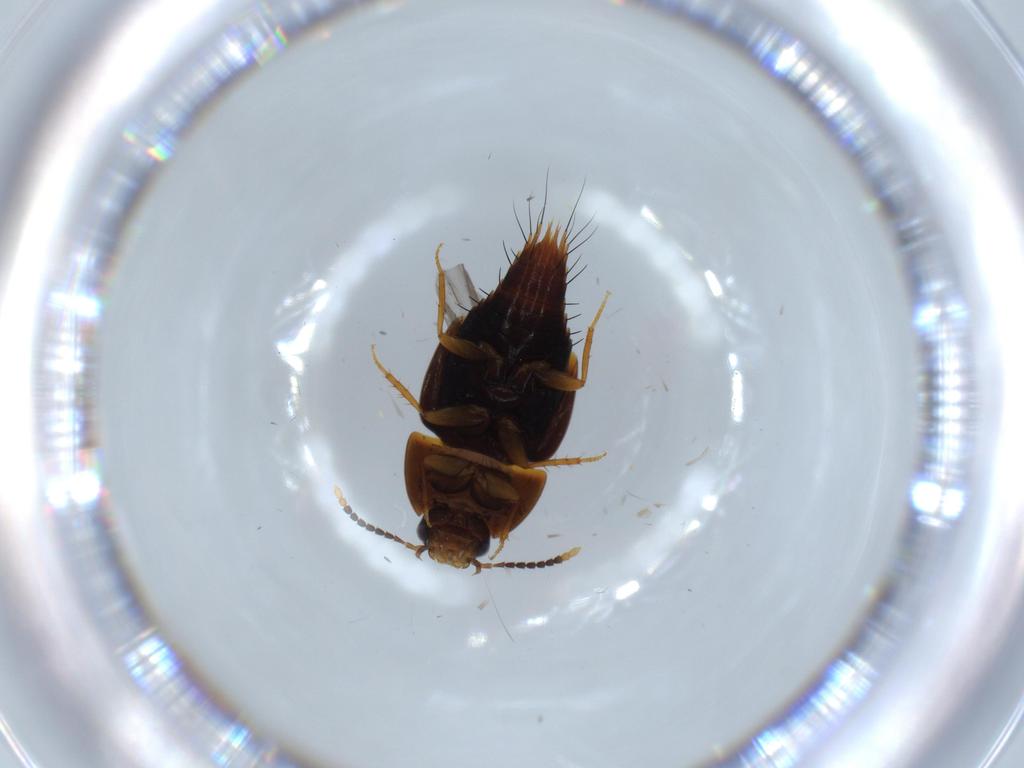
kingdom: Animalia
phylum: Arthropoda
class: Insecta
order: Coleoptera
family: Staphylinidae
